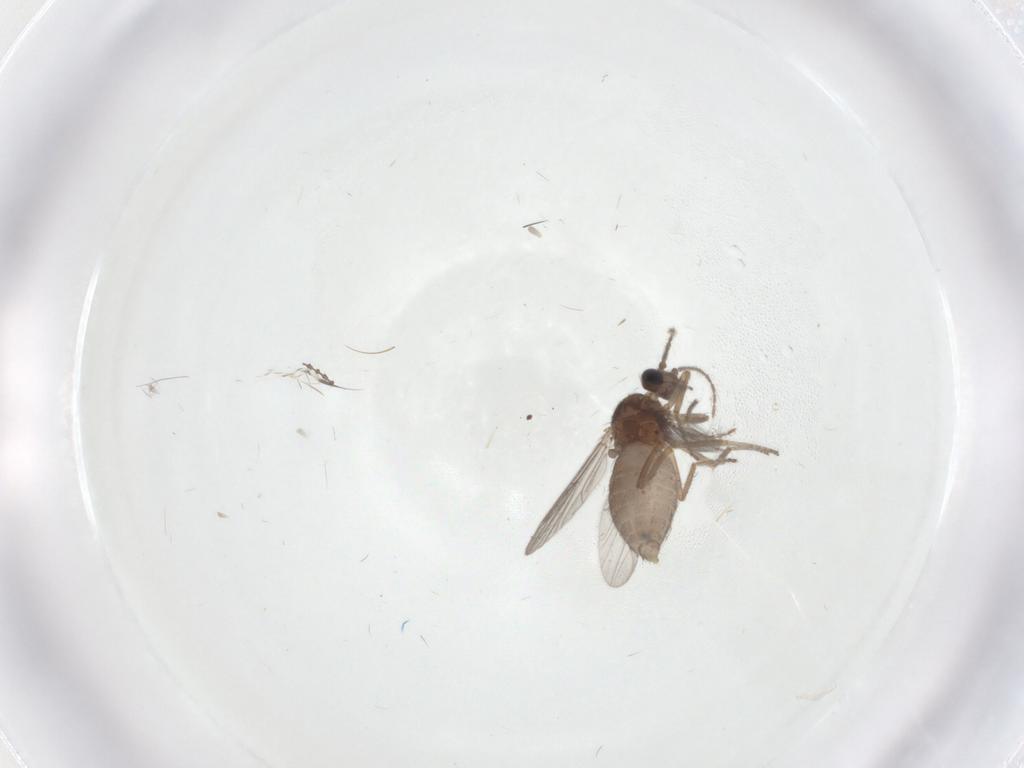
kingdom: Animalia
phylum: Arthropoda
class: Insecta
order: Diptera
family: Ceratopogonidae
